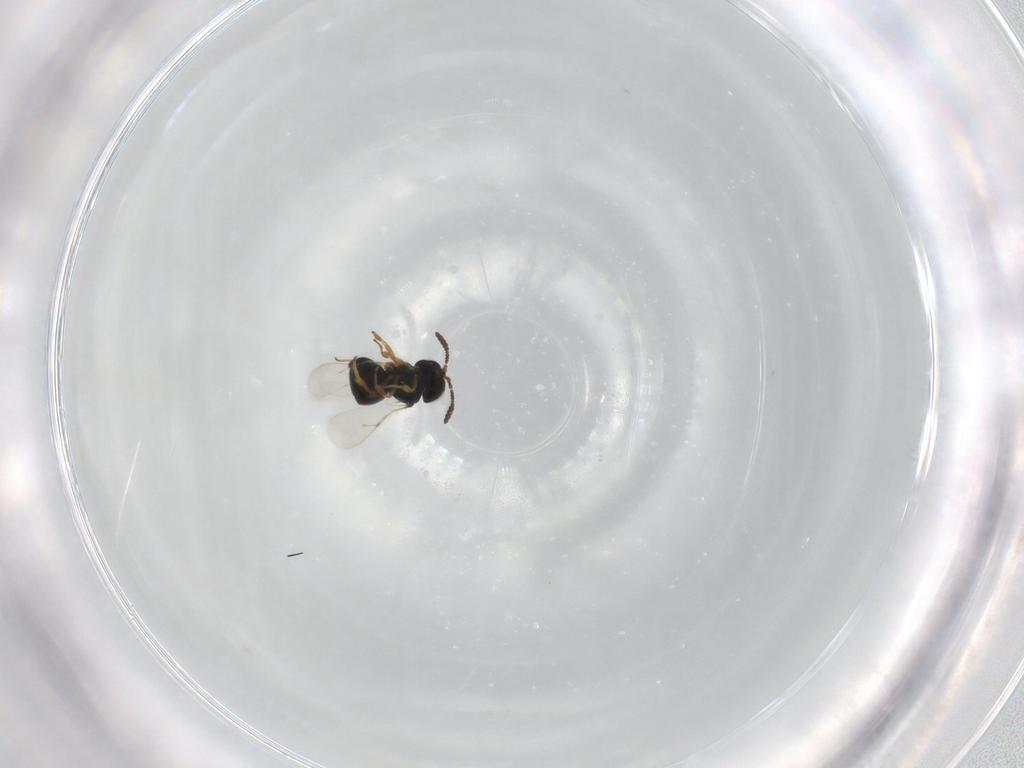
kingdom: Animalia
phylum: Arthropoda
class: Insecta
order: Hymenoptera
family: Scelionidae
